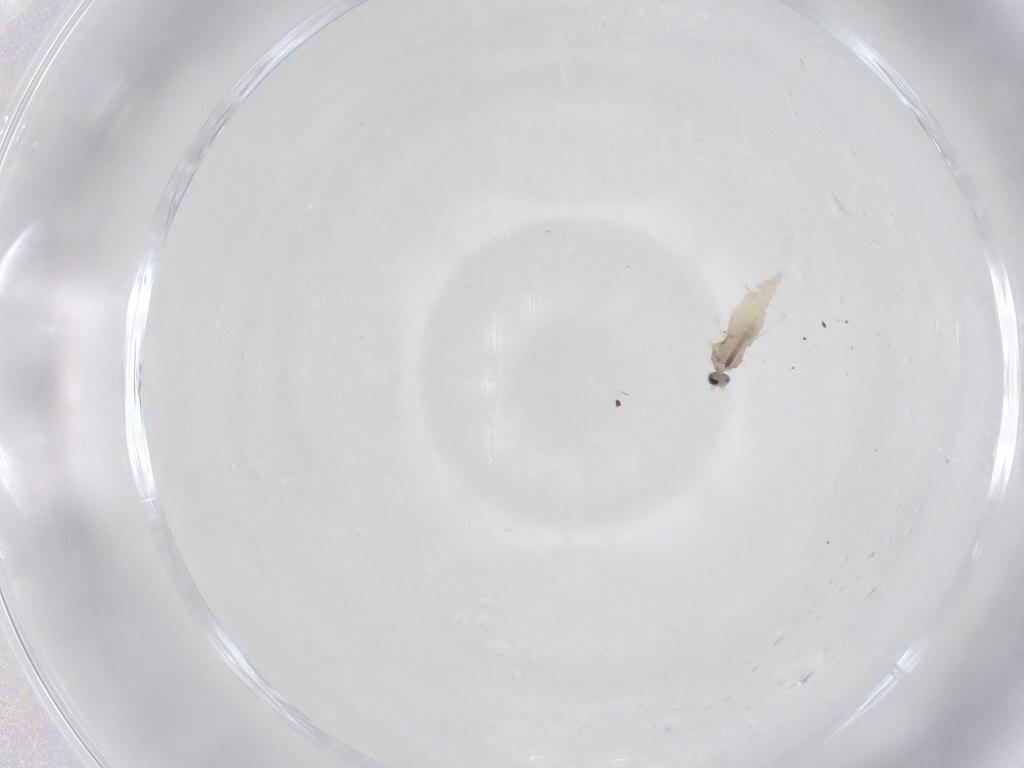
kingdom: Animalia
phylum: Arthropoda
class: Insecta
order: Diptera
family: Cecidomyiidae
